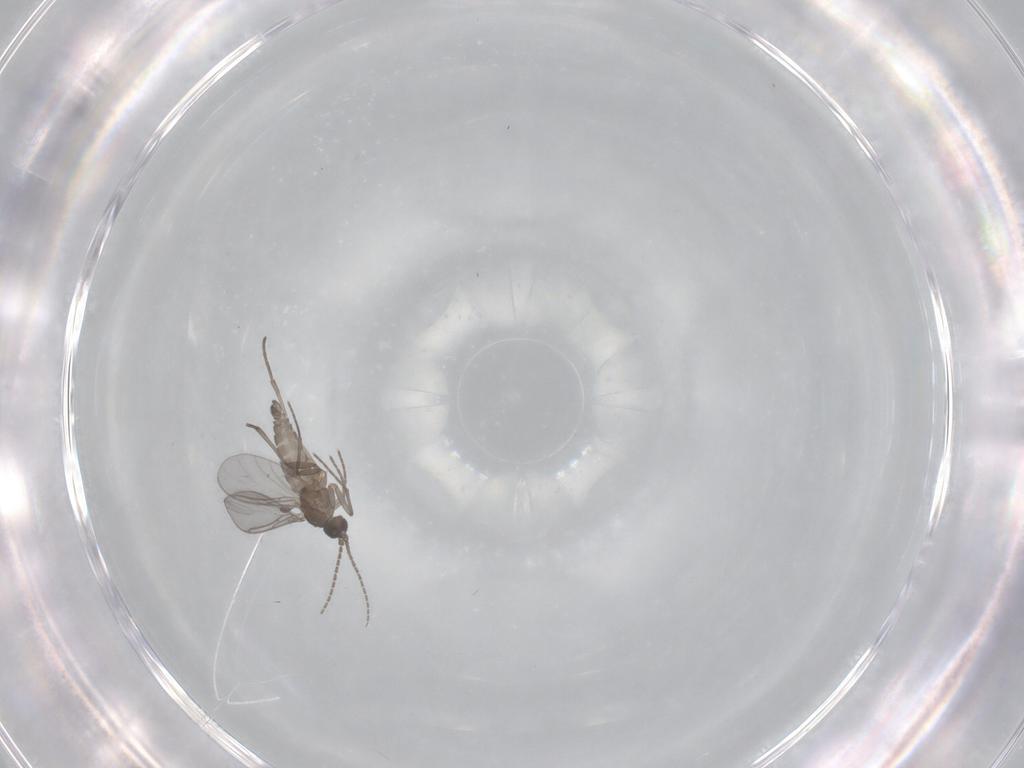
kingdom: Animalia
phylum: Arthropoda
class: Insecta
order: Diptera
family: Sciaridae
